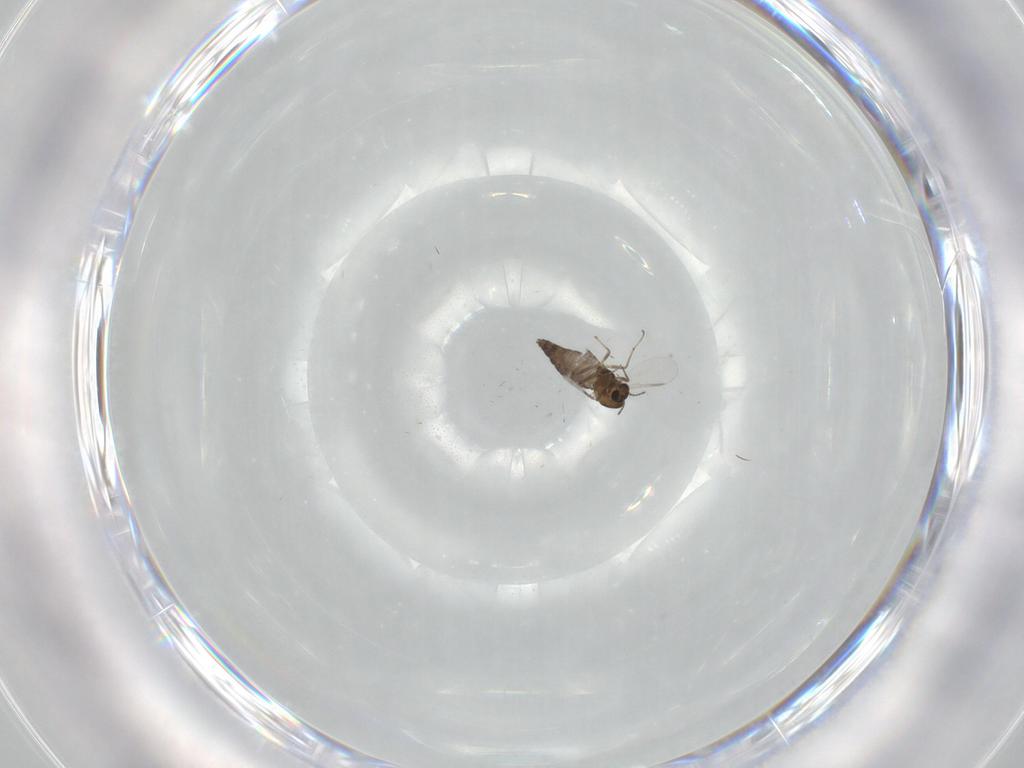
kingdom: Animalia
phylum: Arthropoda
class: Insecta
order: Diptera
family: Chironomidae
